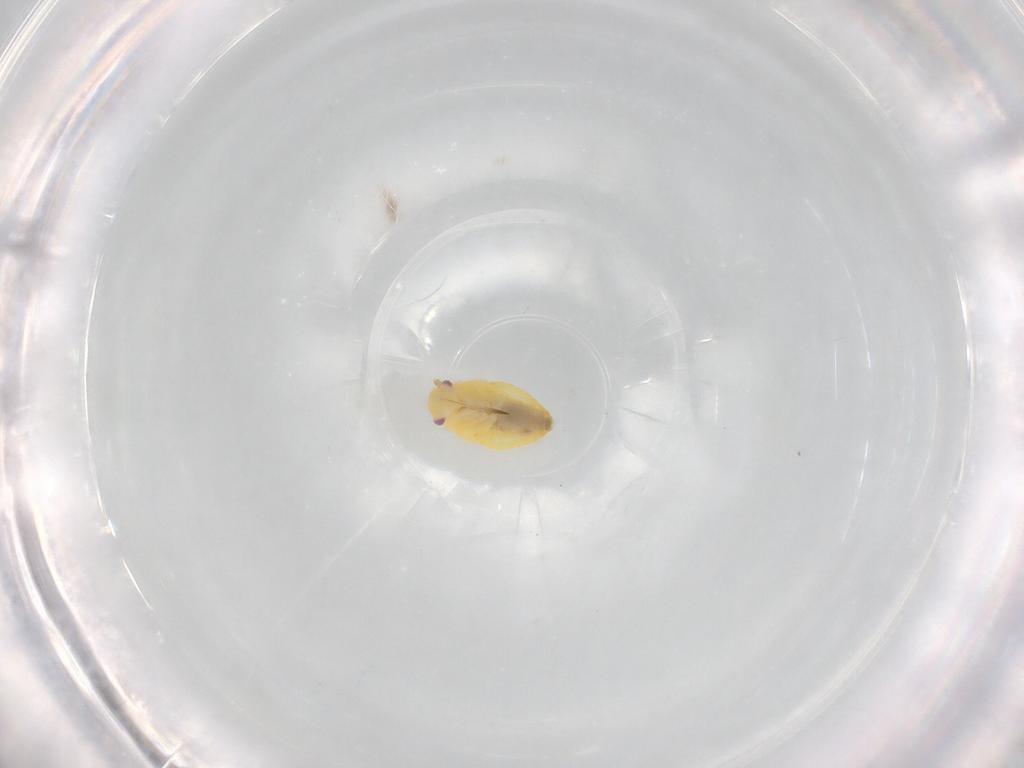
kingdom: Animalia
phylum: Arthropoda
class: Insecta
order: Hemiptera
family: Miridae
